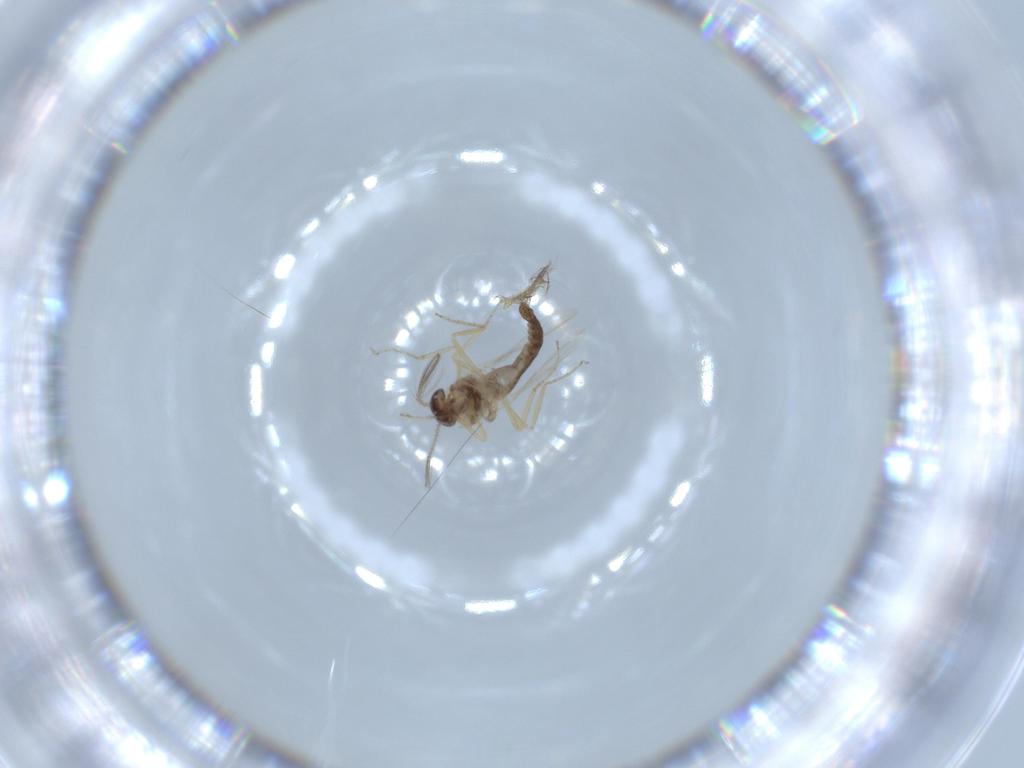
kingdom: Animalia
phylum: Arthropoda
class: Insecta
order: Diptera
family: Ceratopogonidae
